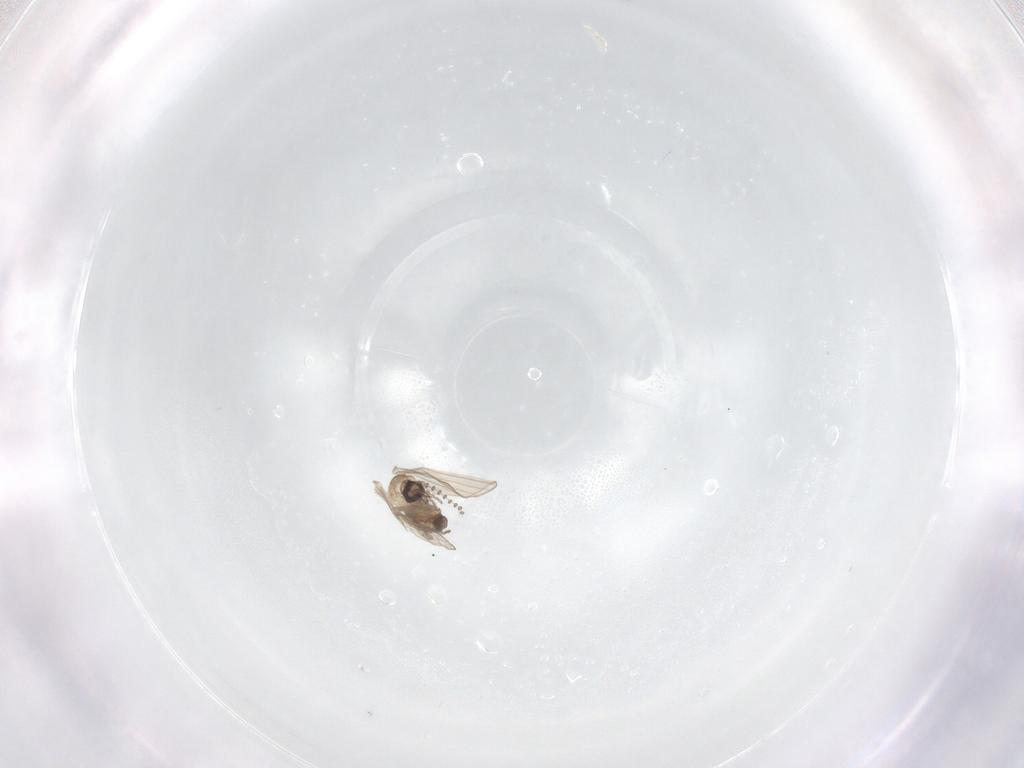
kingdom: Animalia
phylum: Arthropoda
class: Insecta
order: Diptera
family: Psychodidae
